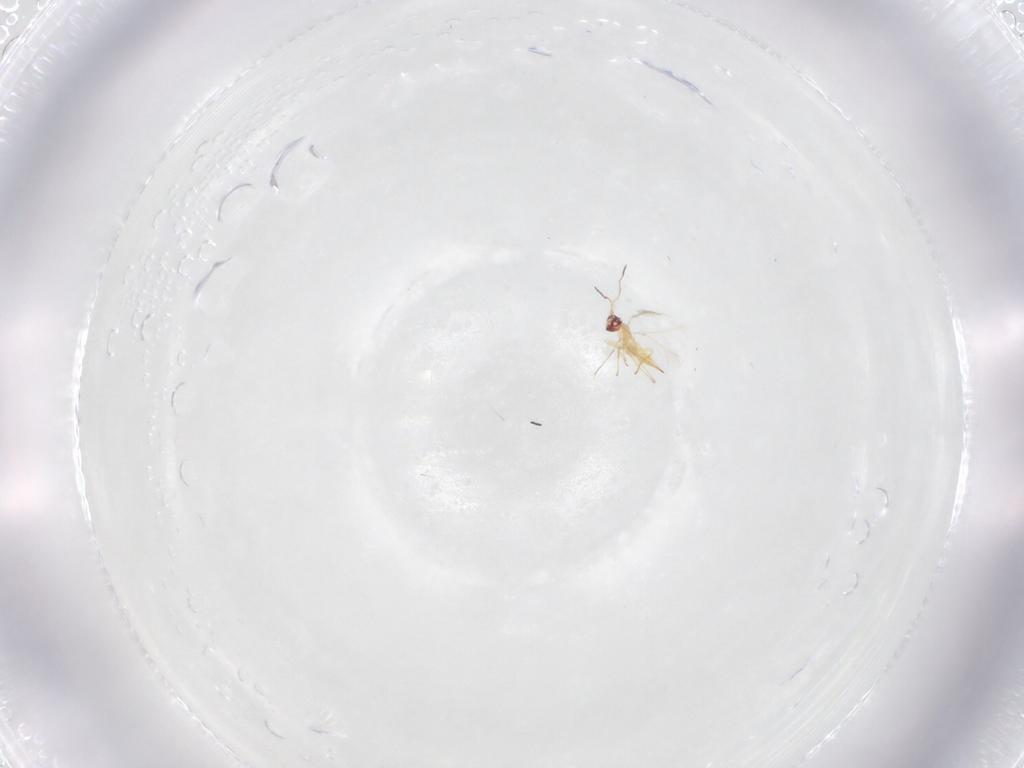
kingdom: Animalia
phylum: Arthropoda
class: Insecta
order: Hymenoptera
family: Mymaridae
